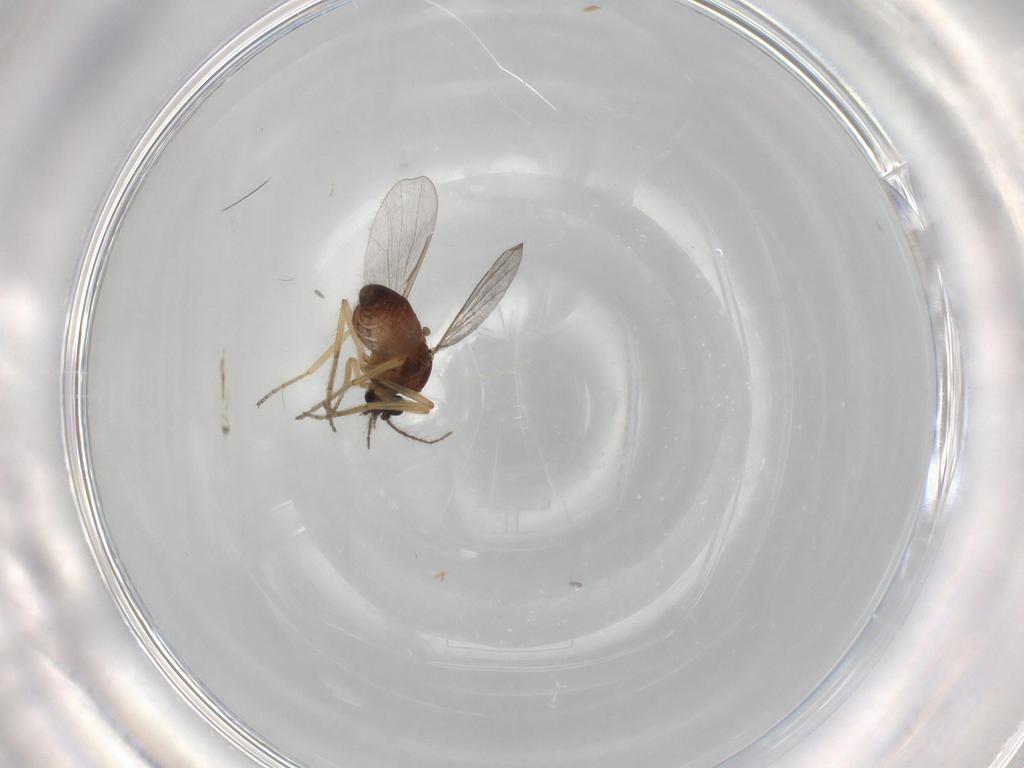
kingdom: Animalia
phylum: Arthropoda
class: Insecta
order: Diptera
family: Ceratopogonidae
